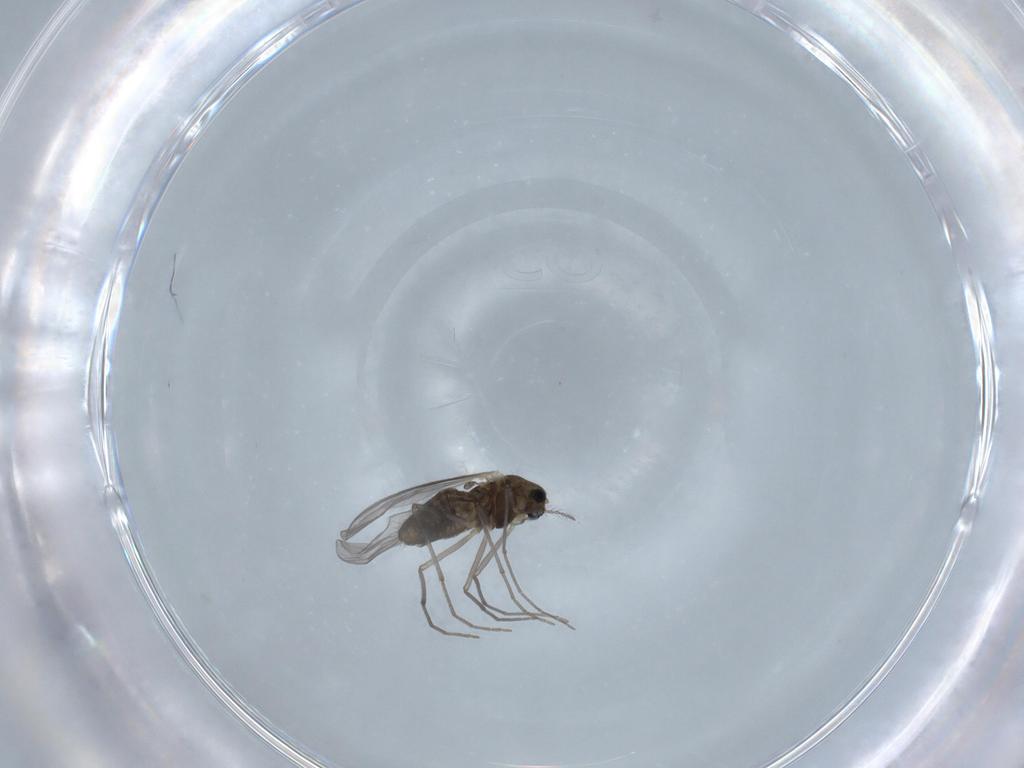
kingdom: Animalia
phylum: Arthropoda
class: Insecta
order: Diptera
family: Chironomidae
